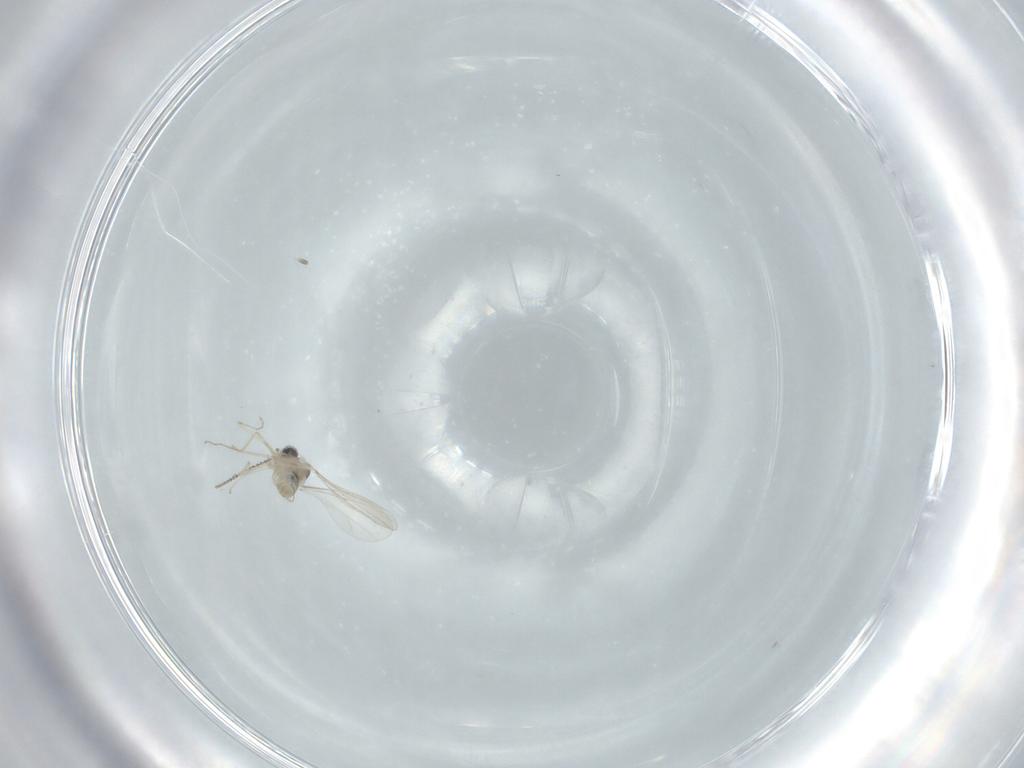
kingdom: Animalia
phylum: Arthropoda
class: Insecta
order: Diptera
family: Cecidomyiidae
